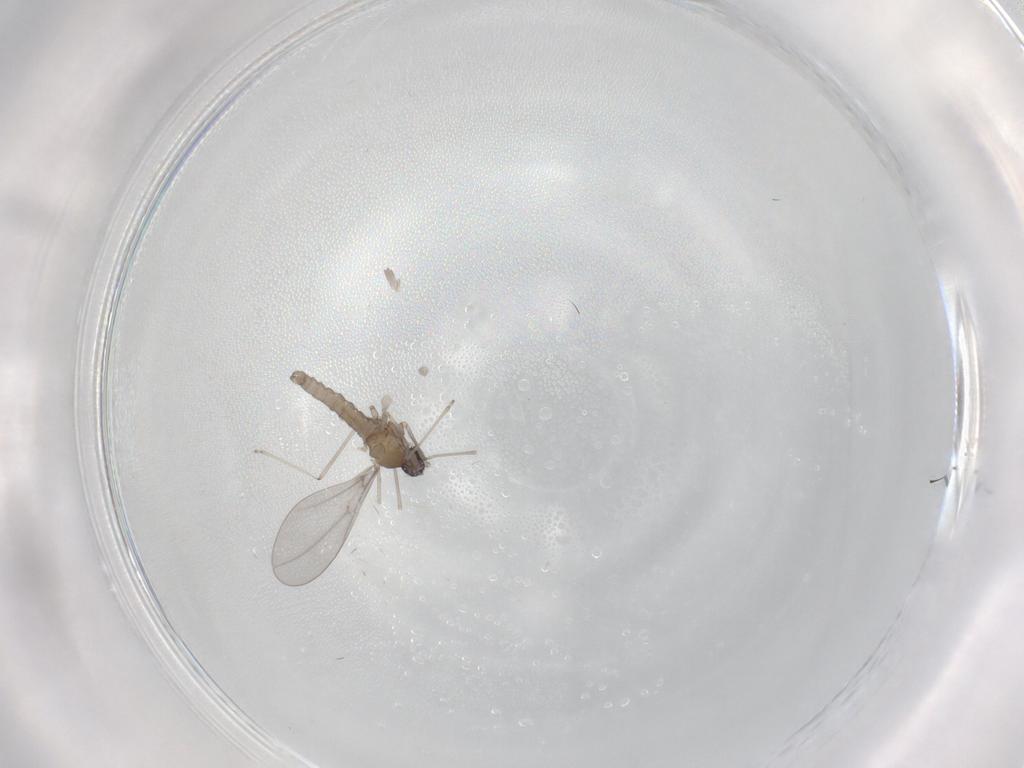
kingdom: Animalia
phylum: Arthropoda
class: Insecta
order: Diptera
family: Cecidomyiidae
